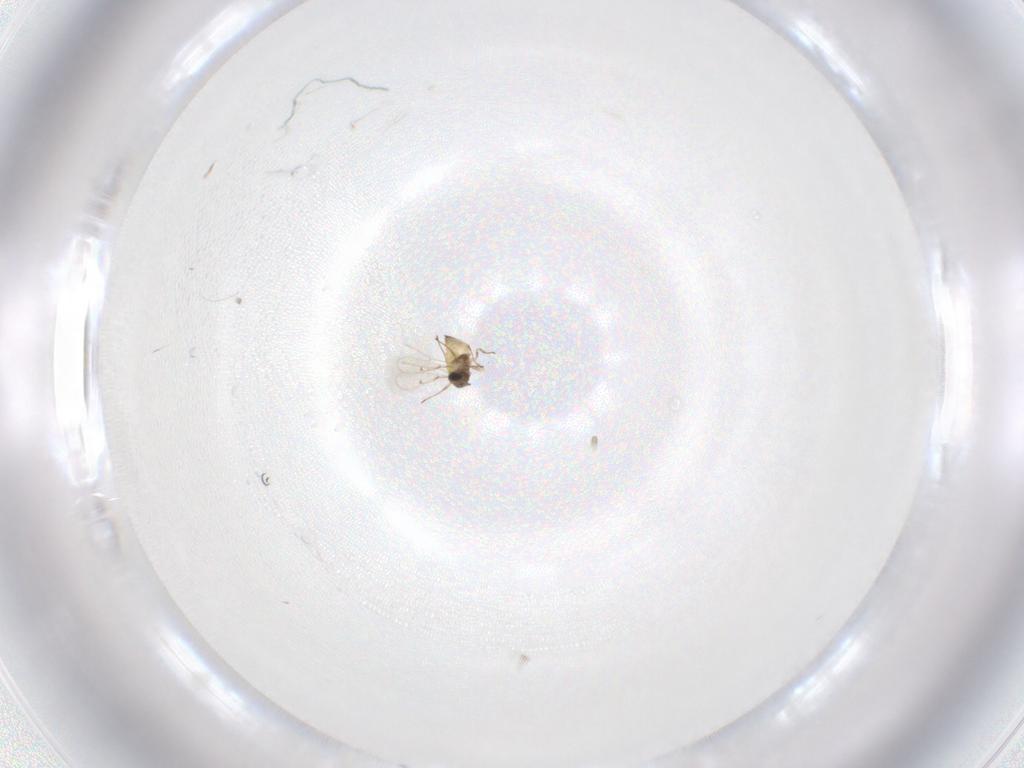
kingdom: Animalia
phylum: Arthropoda
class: Insecta
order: Hymenoptera
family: Trichogrammatidae
